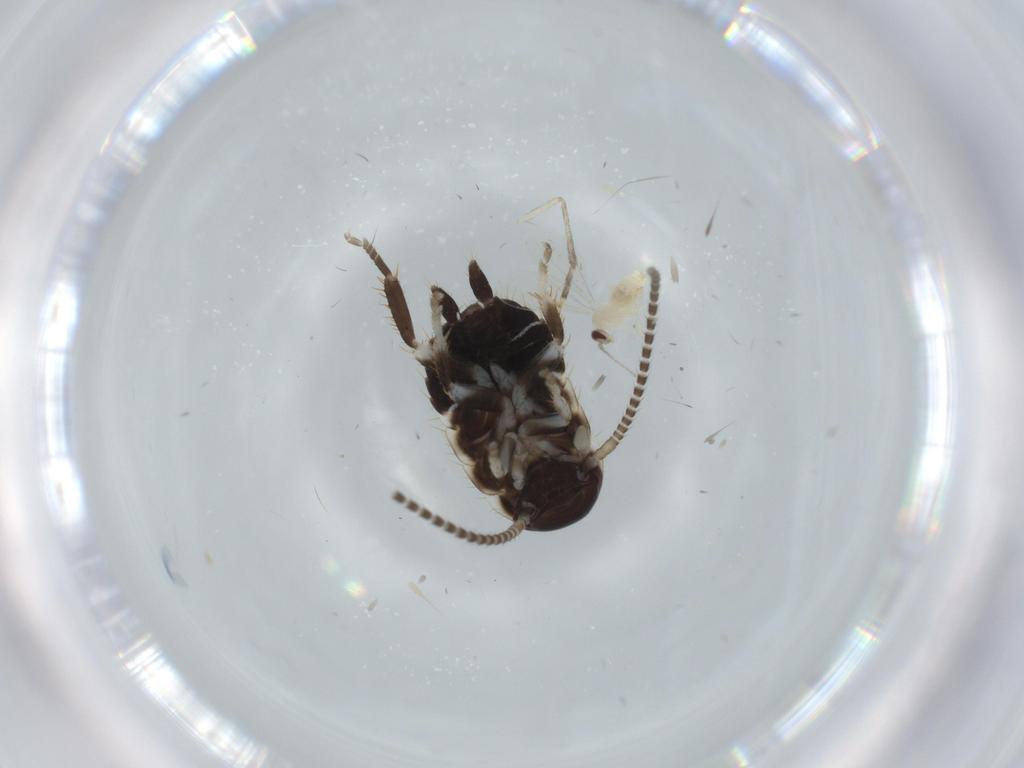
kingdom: Animalia
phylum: Arthropoda
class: Insecta
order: Blattodea
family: Ectobiidae
